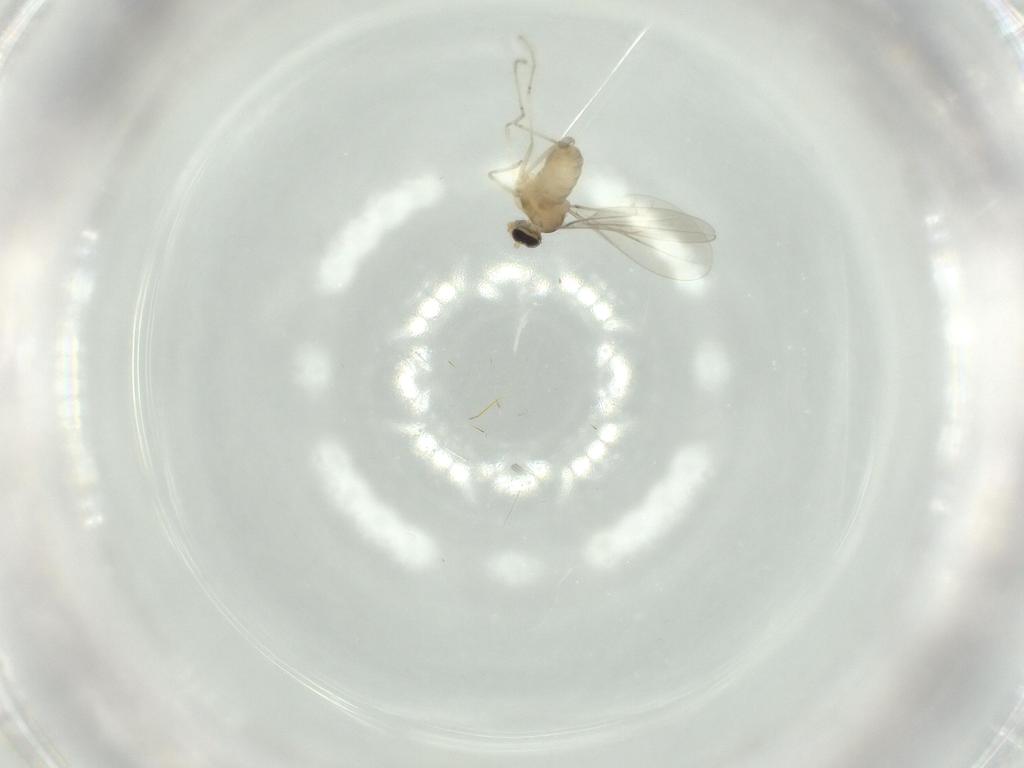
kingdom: Animalia
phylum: Arthropoda
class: Insecta
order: Diptera
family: Cecidomyiidae
